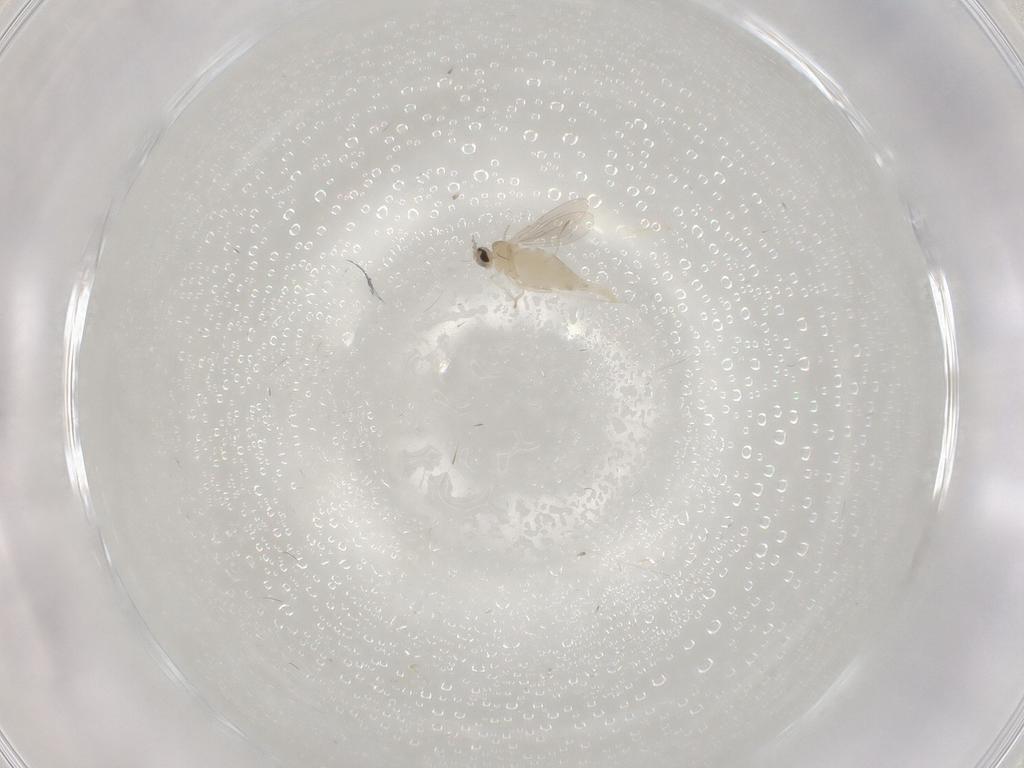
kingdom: Animalia
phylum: Arthropoda
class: Insecta
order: Diptera
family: Cecidomyiidae
